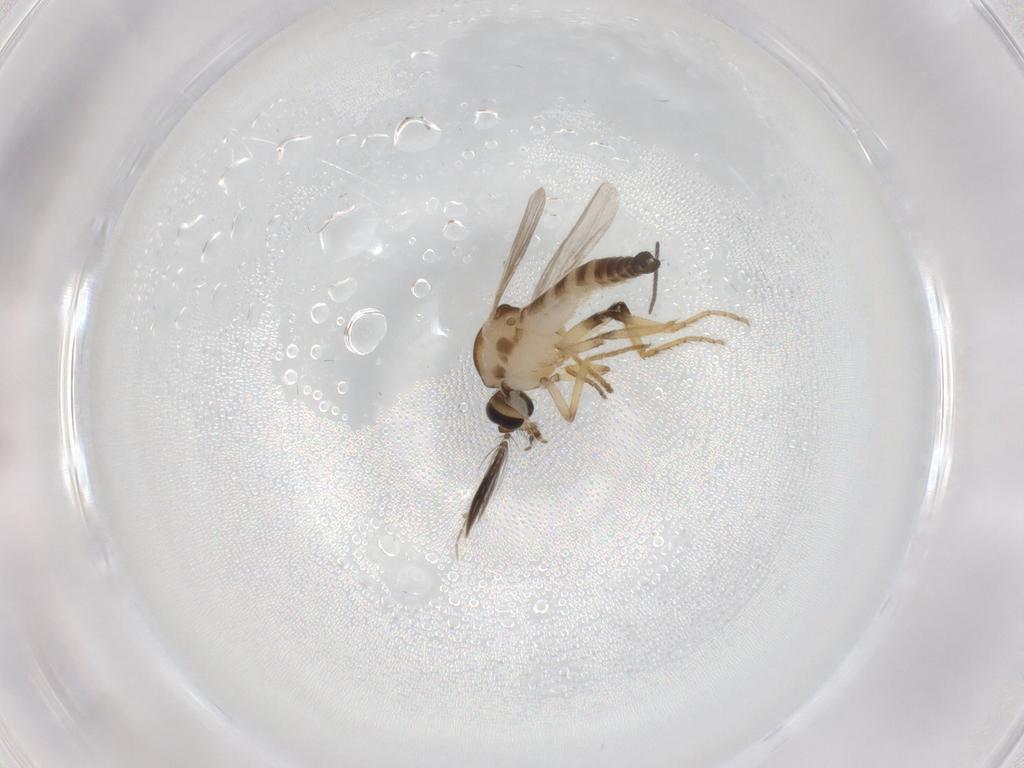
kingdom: Animalia
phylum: Arthropoda
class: Insecta
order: Diptera
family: Ceratopogonidae
